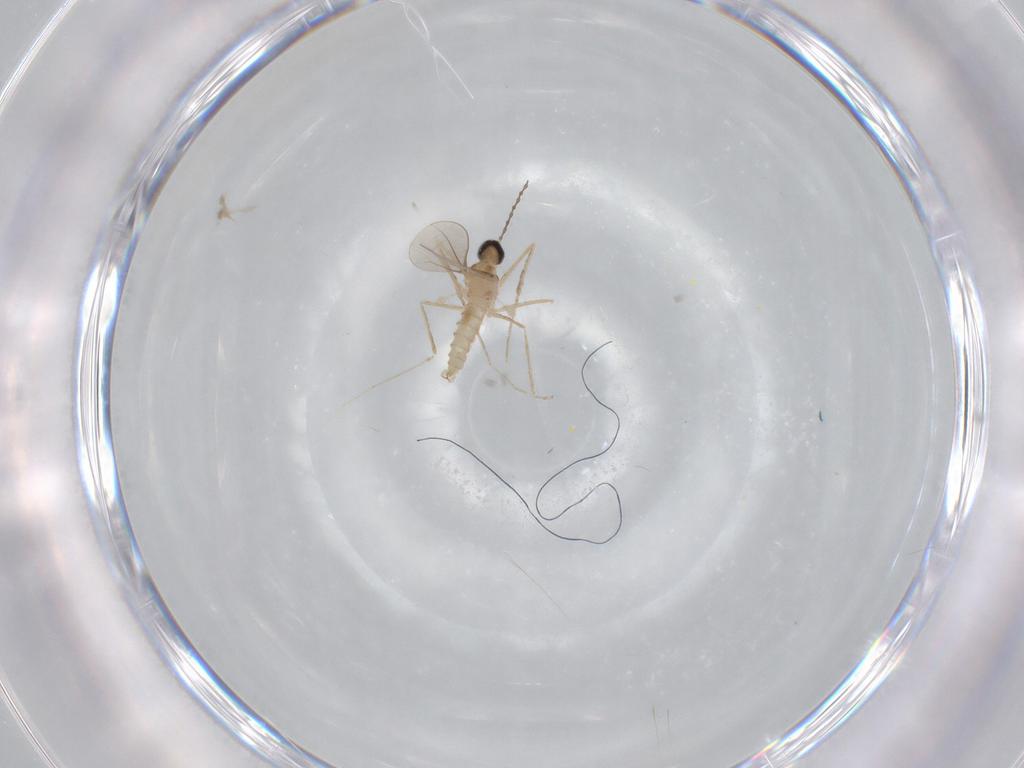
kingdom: Animalia
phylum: Arthropoda
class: Insecta
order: Diptera
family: Cecidomyiidae
